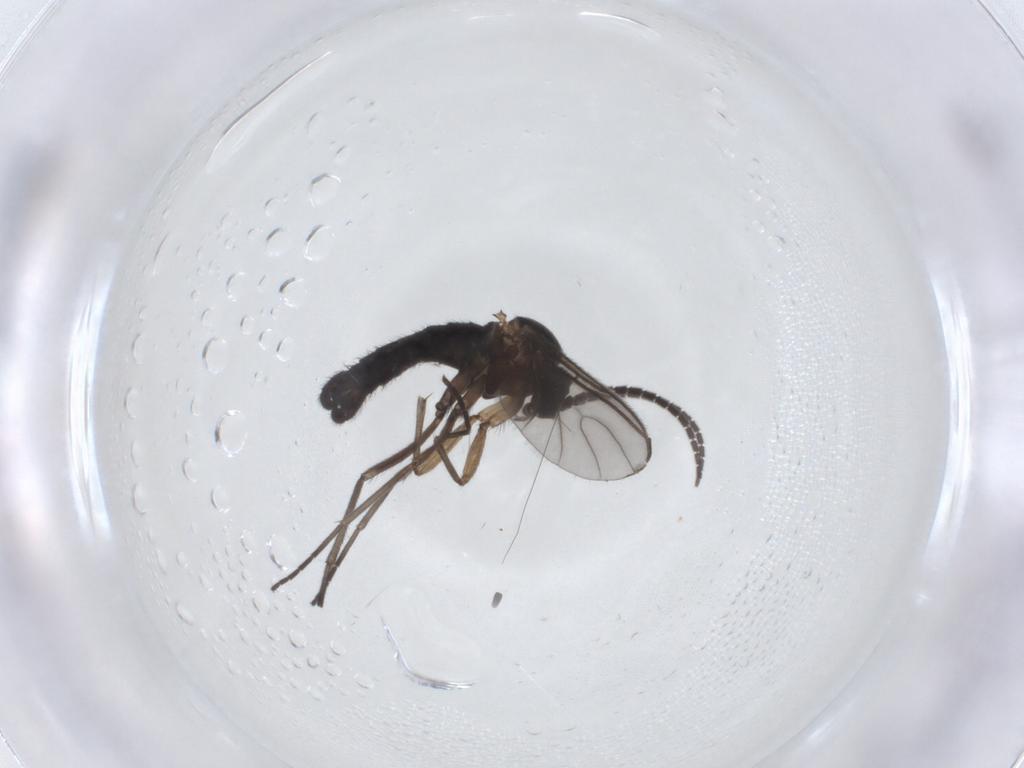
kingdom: Animalia
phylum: Arthropoda
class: Insecta
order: Diptera
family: Sciaridae
